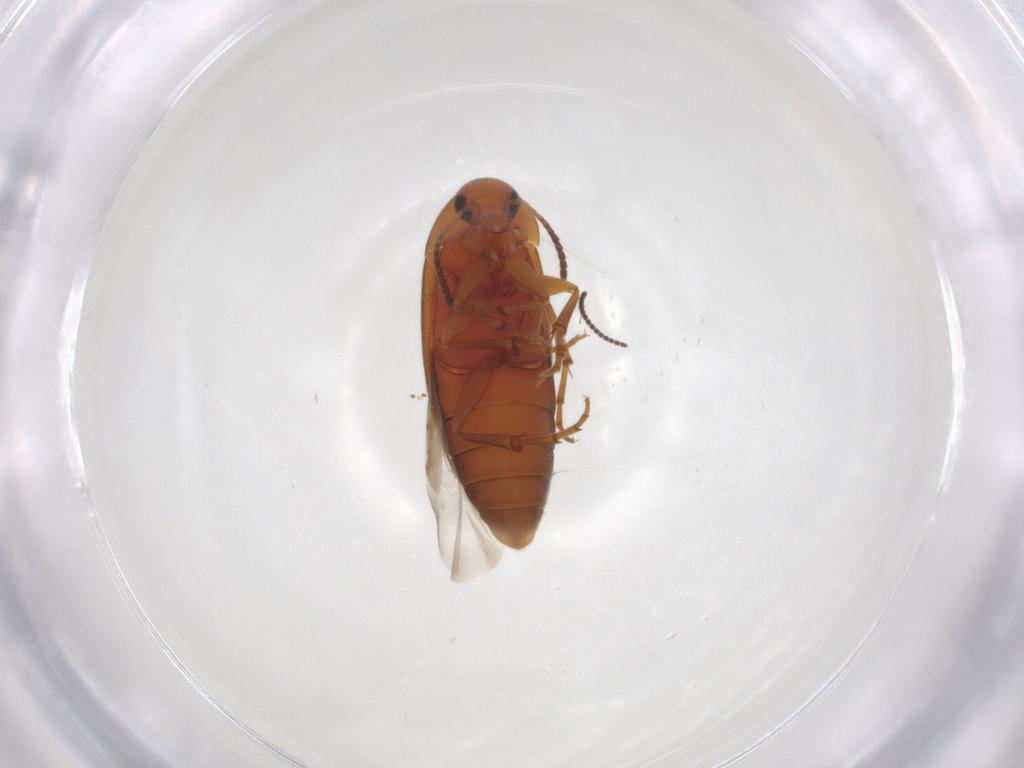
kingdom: Animalia
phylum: Arthropoda
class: Insecta
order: Coleoptera
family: Scraptiidae
